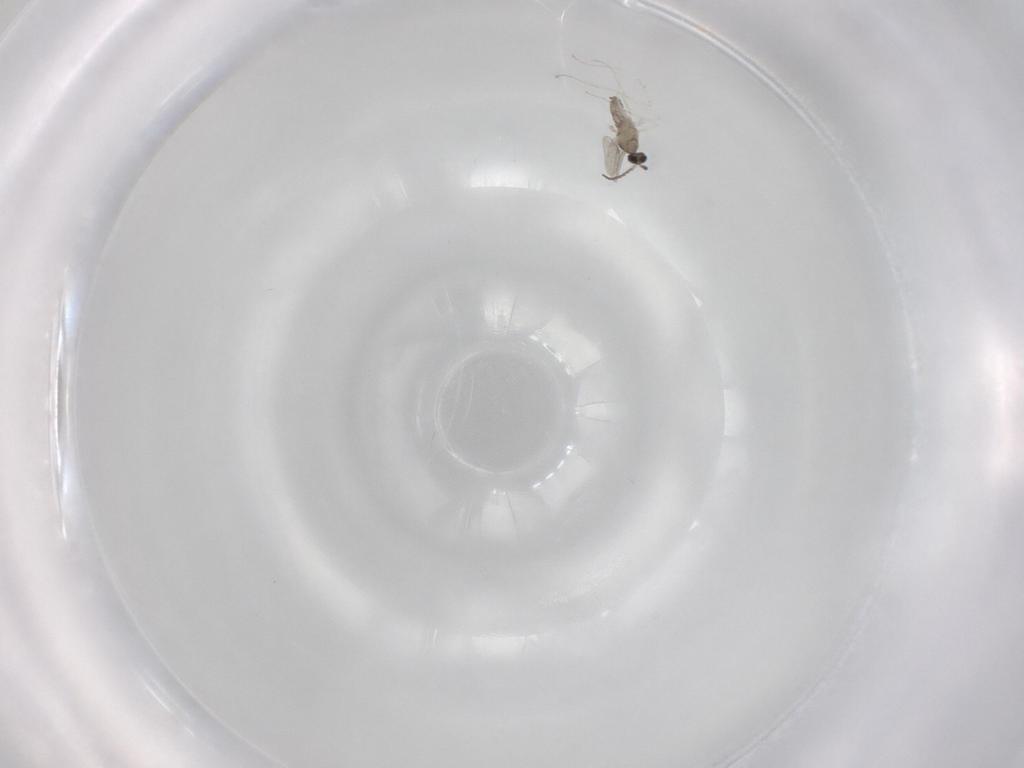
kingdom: Animalia
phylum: Arthropoda
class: Insecta
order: Diptera
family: Cecidomyiidae
